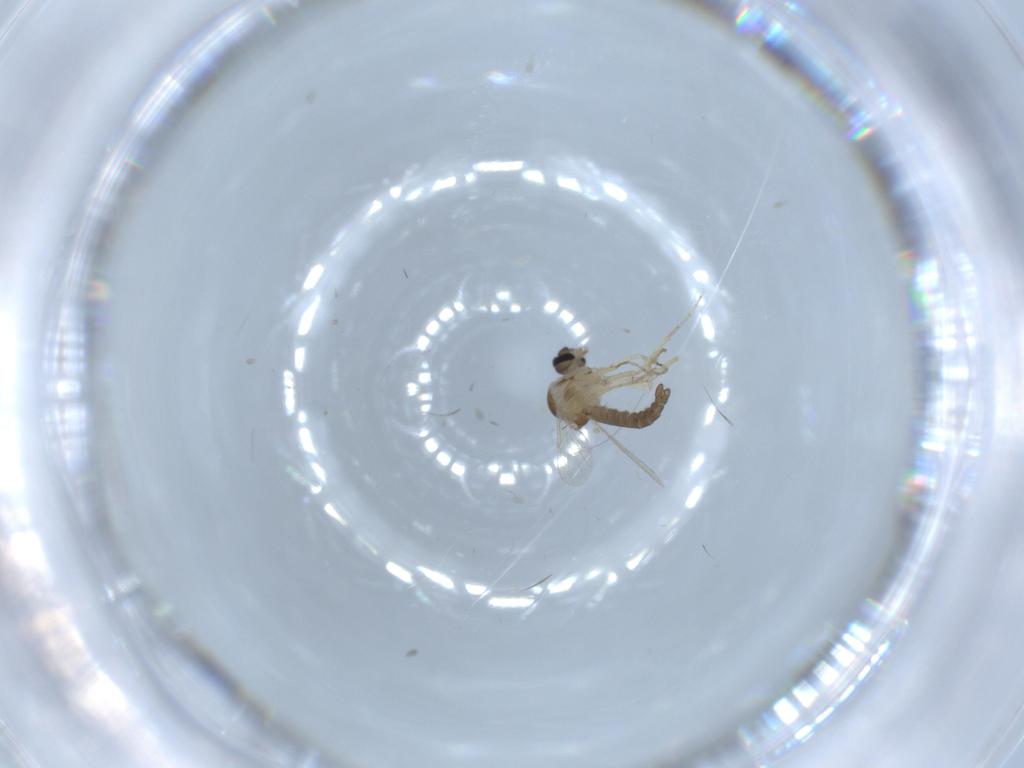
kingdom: Animalia
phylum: Arthropoda
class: Insecta
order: Diptera
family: Ceratopogonidae
